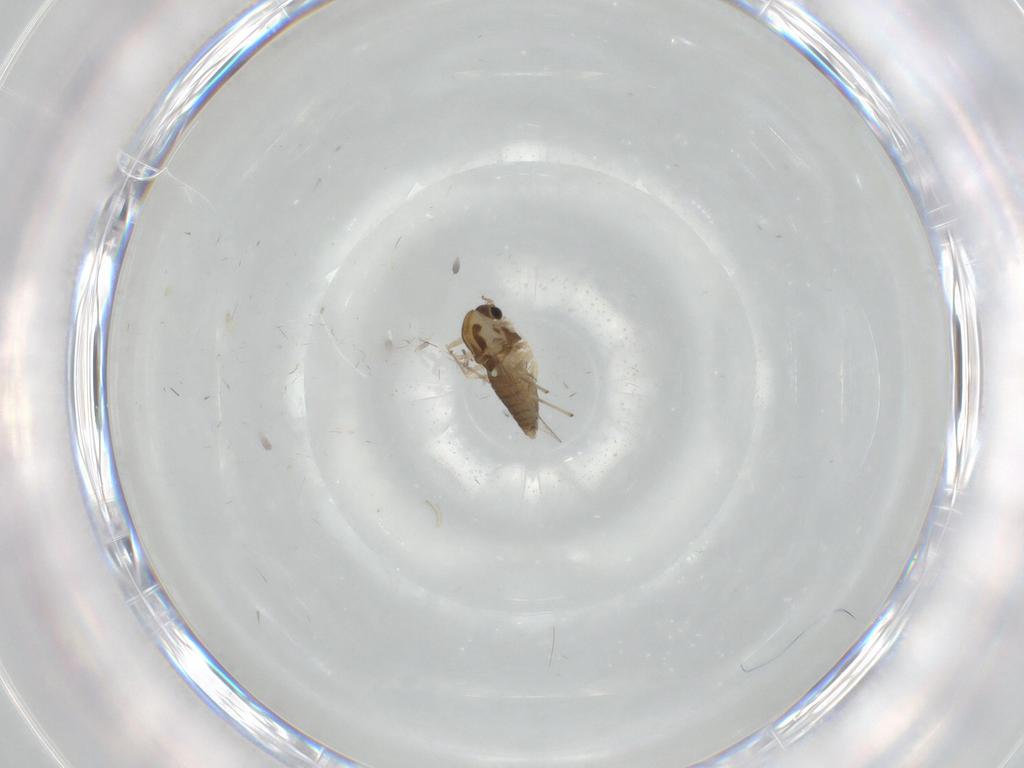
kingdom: Animalia
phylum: Arthropoda
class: Insecta
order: Diptera
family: Chironomidae
